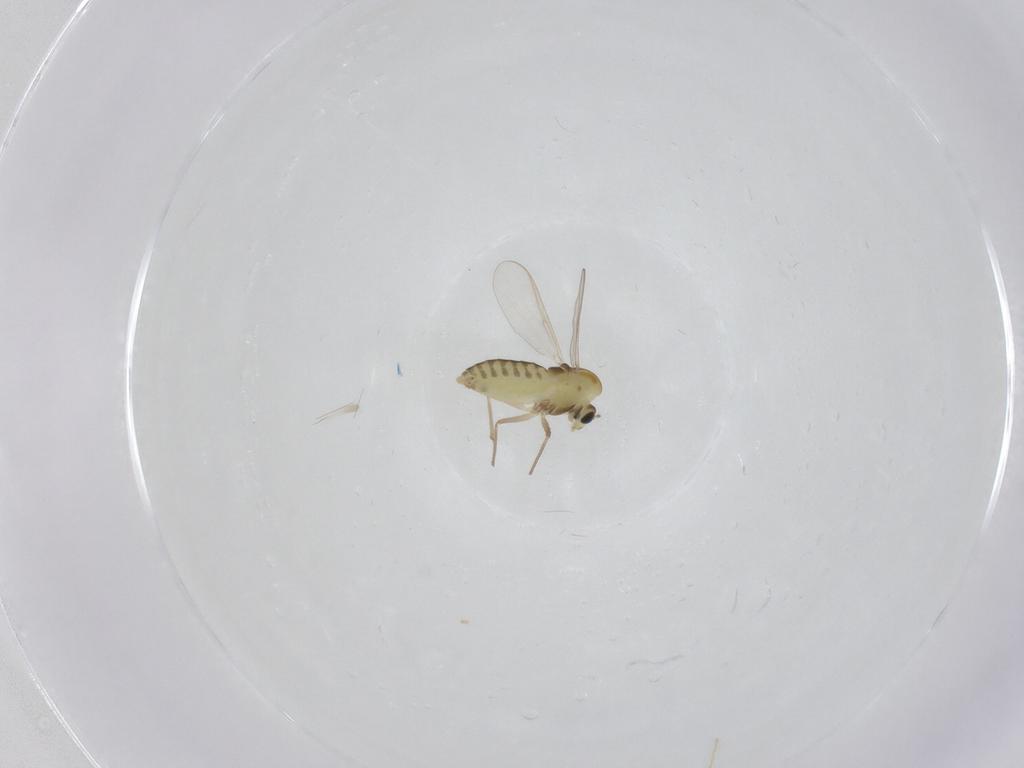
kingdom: Animalia
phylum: Arthropoda
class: Insecta
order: Diptera
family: Chironomidae
